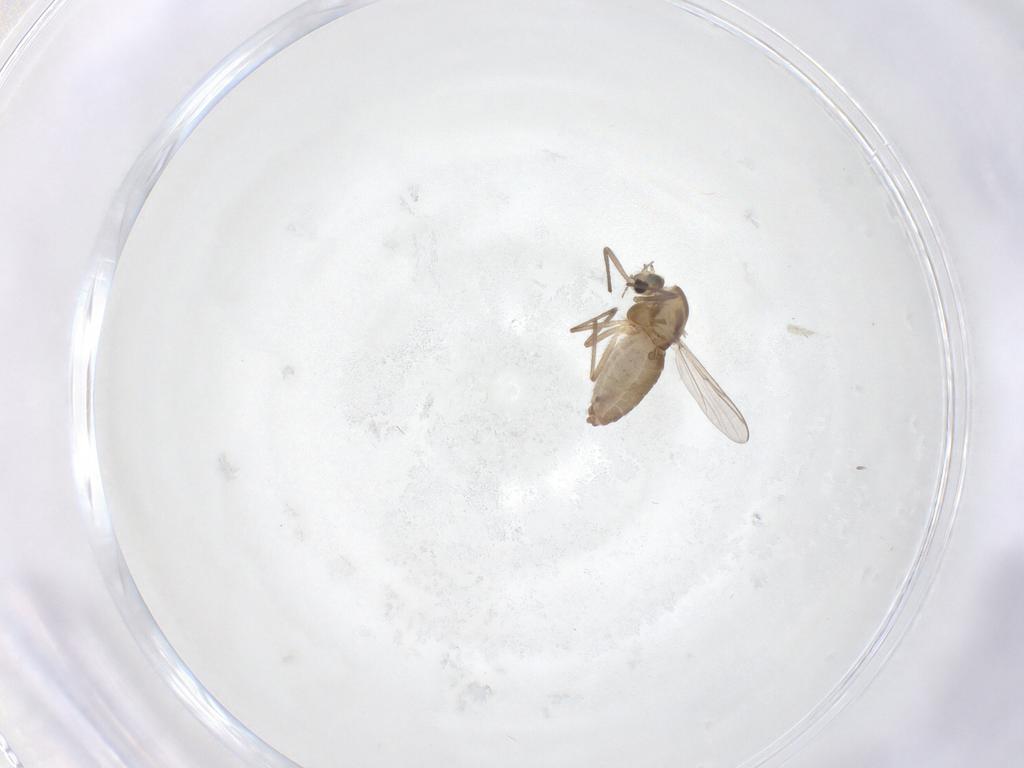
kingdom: Animalia
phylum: Arthropoda
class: Insecta
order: Diptera
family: Chironomidae
